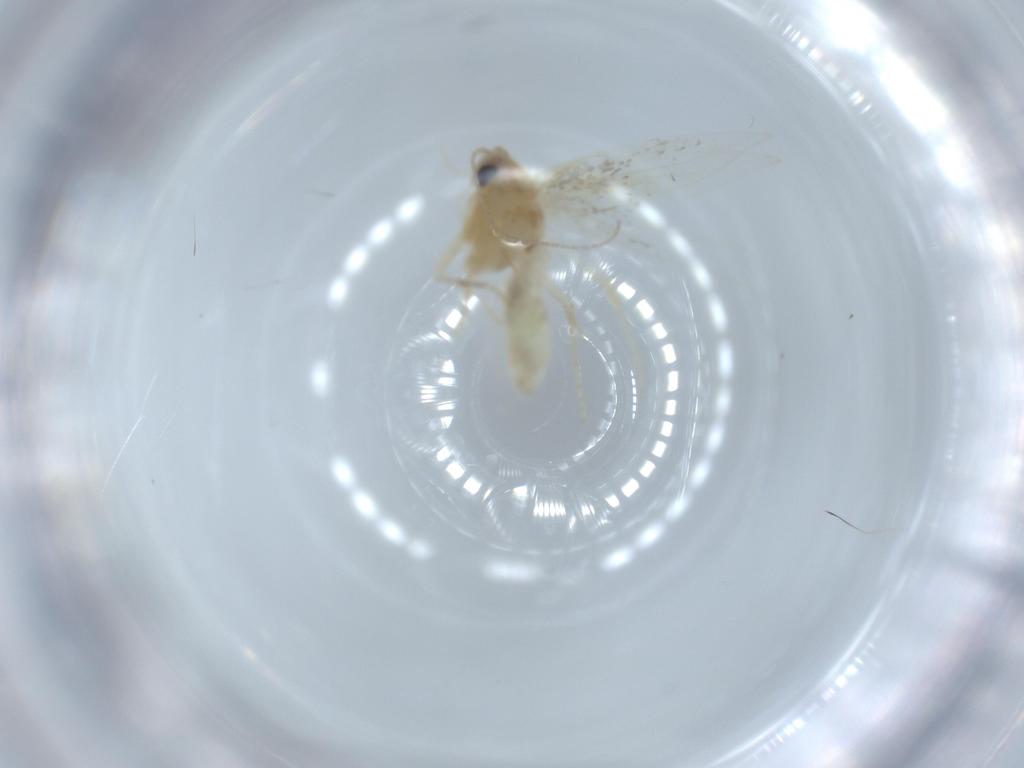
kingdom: Animalia
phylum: Arthropoda
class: Insecta
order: Lepidoptera
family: Bucculatricidae
